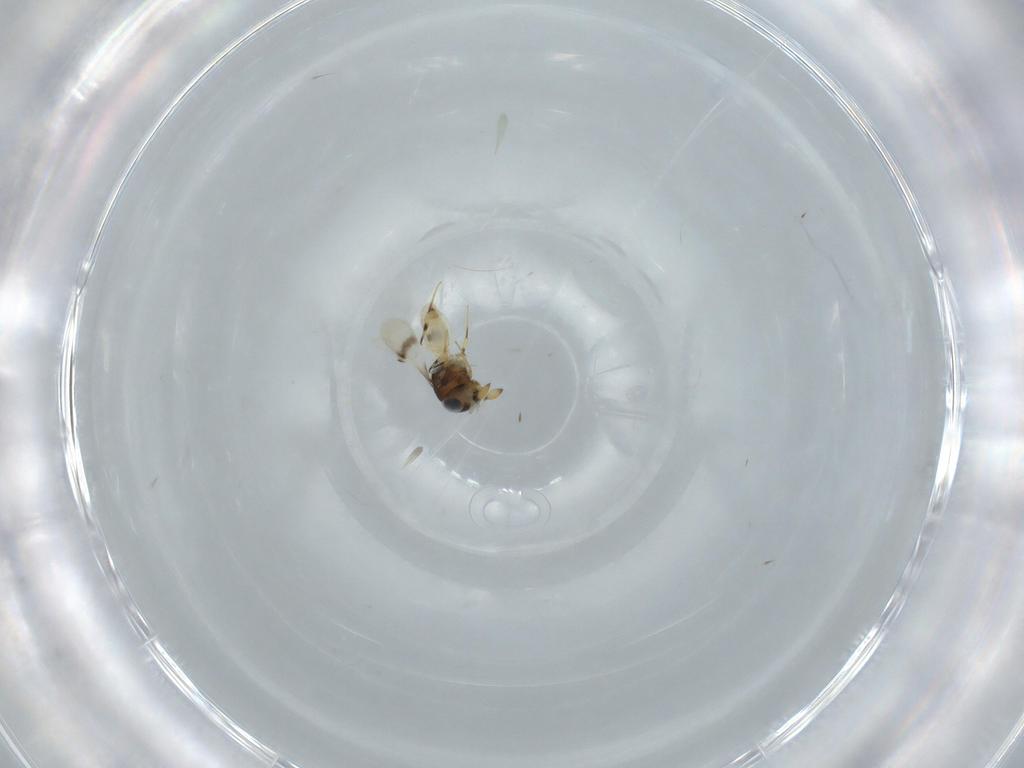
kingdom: Animalia
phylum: Arthropoda
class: Insecta
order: Hymenoptera
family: Scelionidae
